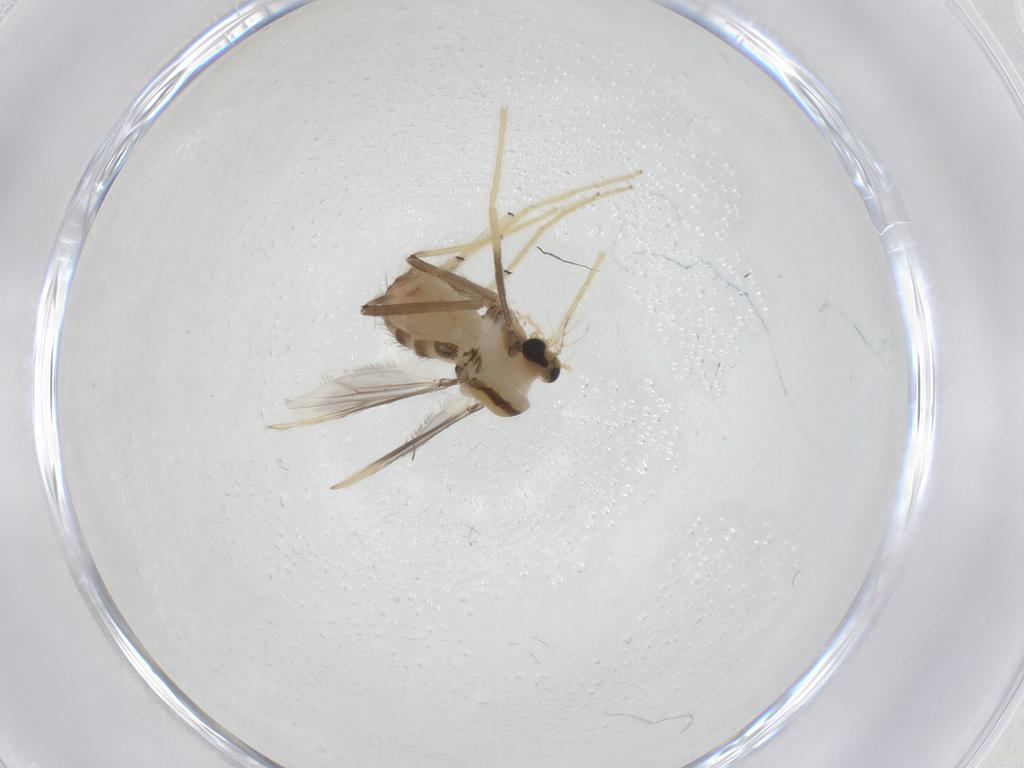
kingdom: Animalia
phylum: Arthropoda
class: Insecta
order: Diptera
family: Chironomidae
